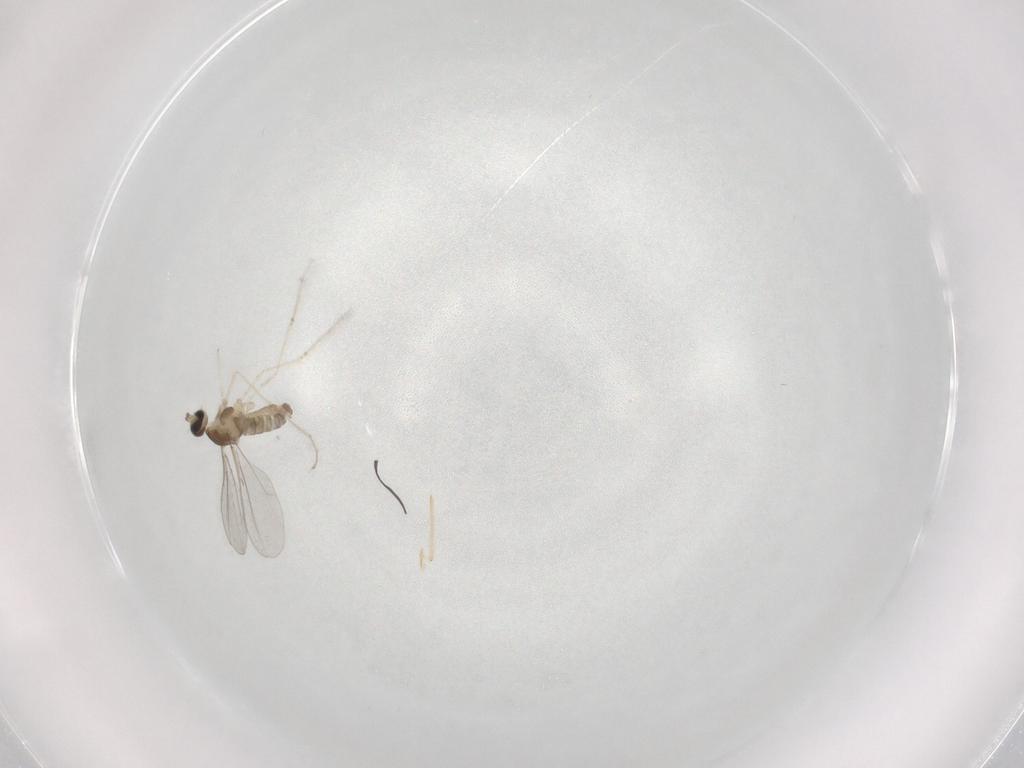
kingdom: Animalia
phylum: Arthropoda
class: Insecta
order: Diptera
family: Cecidomyiidae
